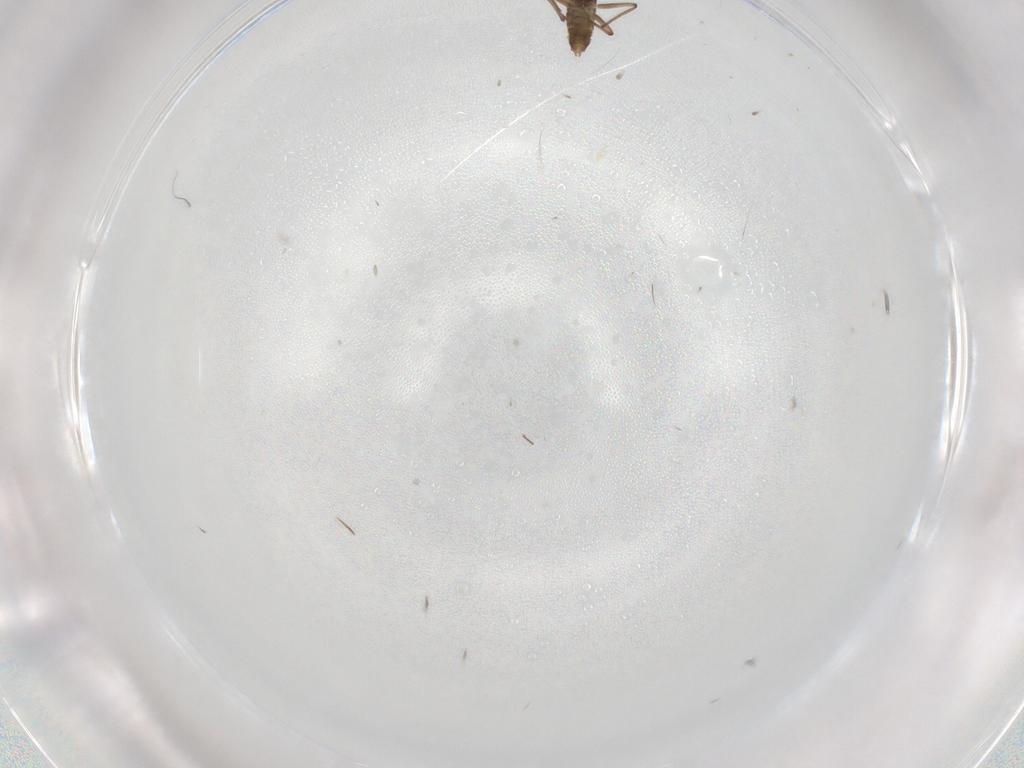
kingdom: Animalia
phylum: Arthropoda
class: Insecta
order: Diptera
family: Chironomidae
